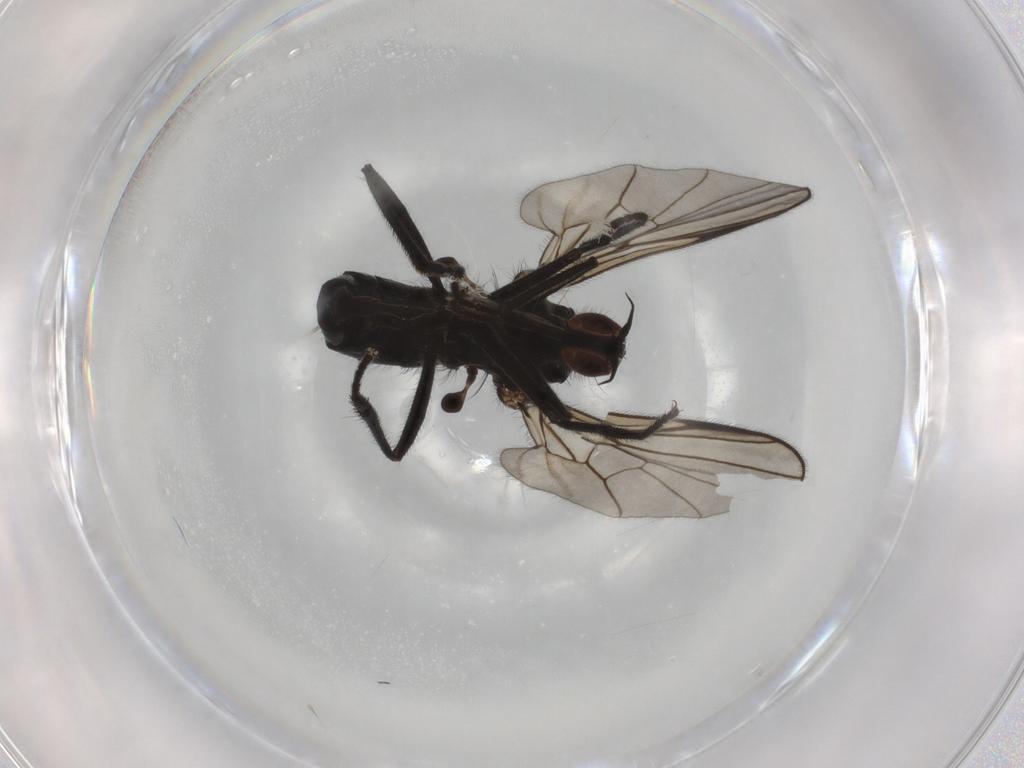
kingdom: Animalia
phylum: Arthropoda
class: Insecta
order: Diptera
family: Empididae
